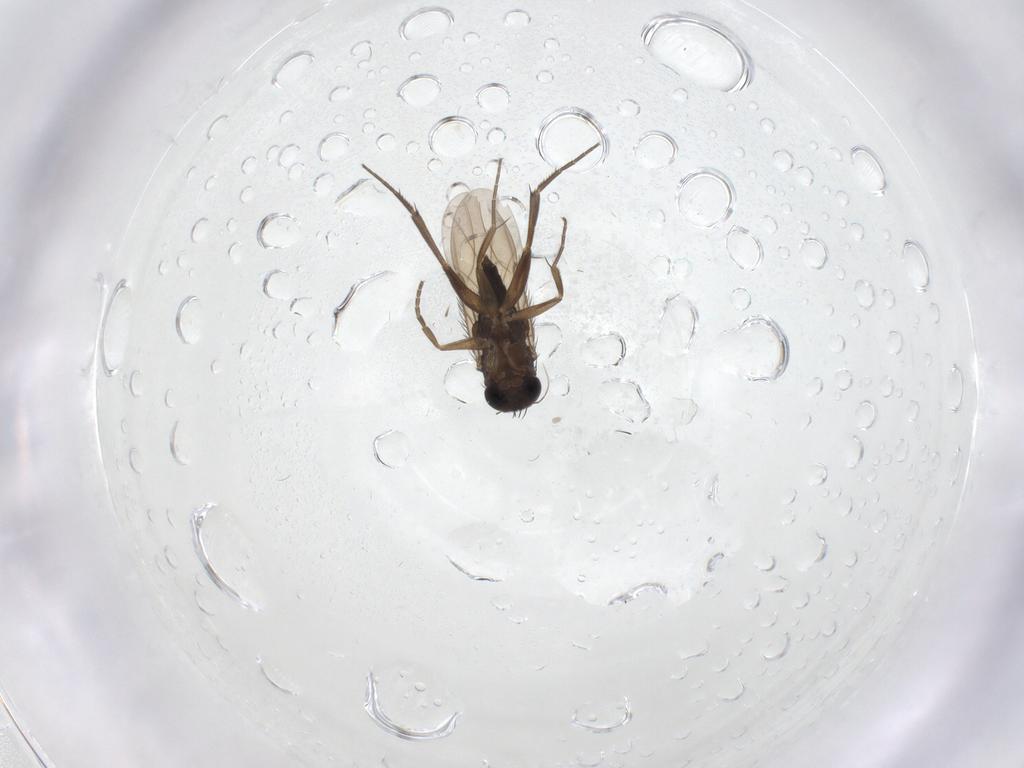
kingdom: Animalia
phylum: Arthropoda
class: Insecta
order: Diptera
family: Phoridae
